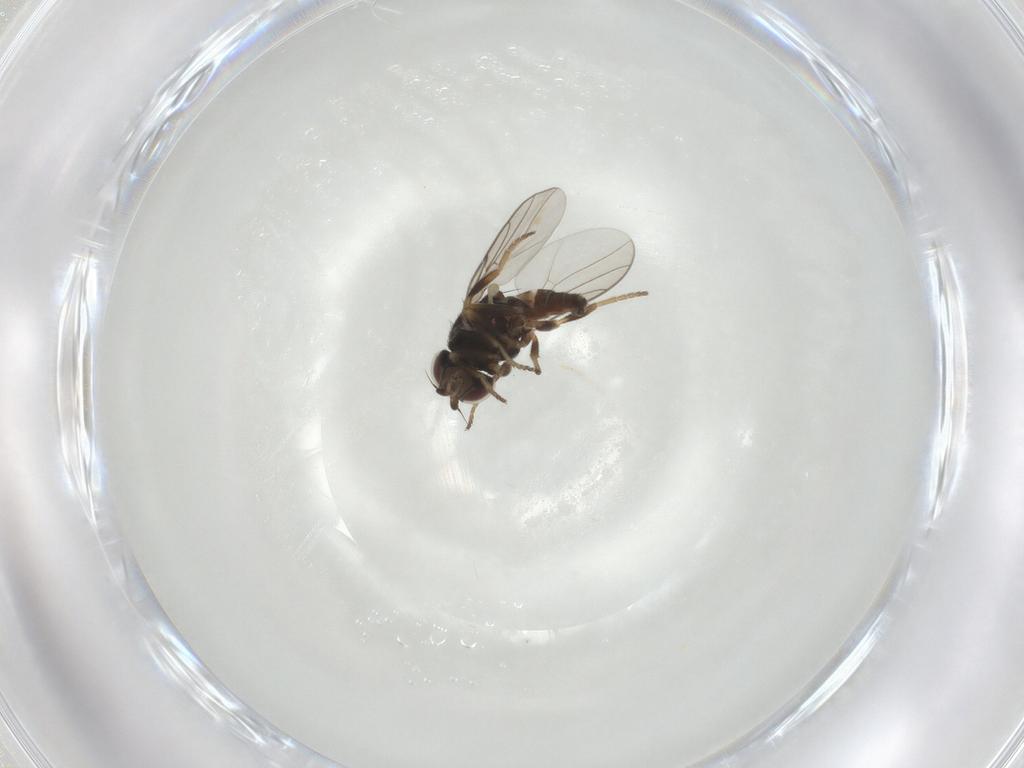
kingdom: Animalia
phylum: Arthropoda
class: Insecta
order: Diptera
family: Chloropidae
